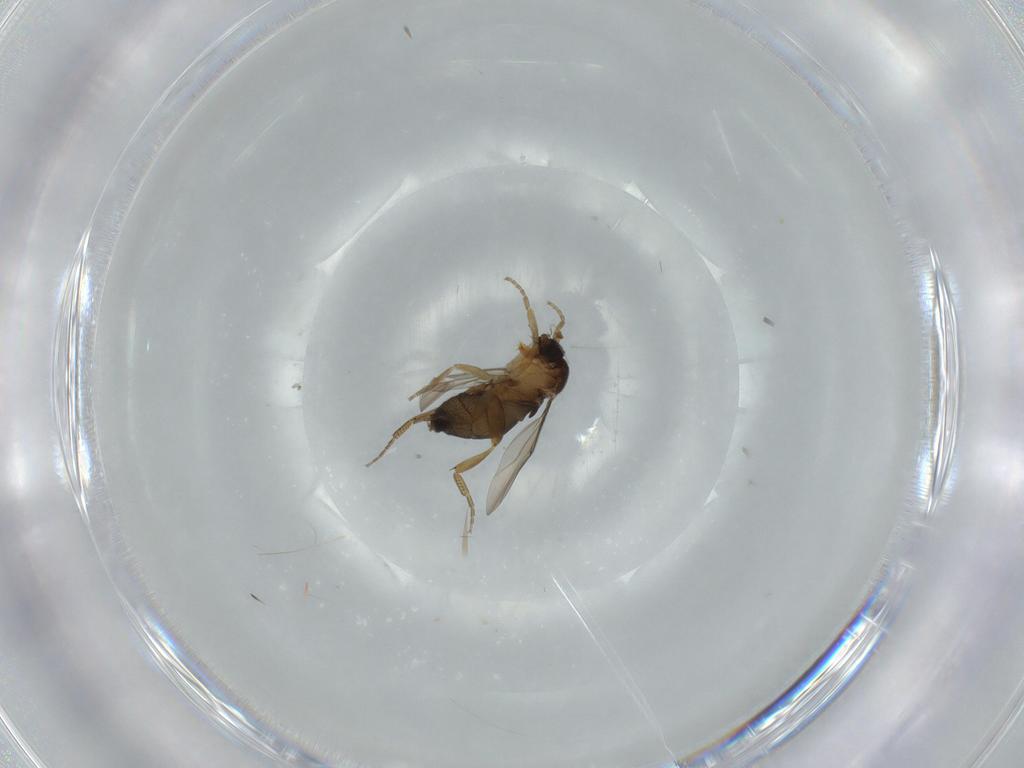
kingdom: Animalia
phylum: Arthropoda
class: Insecta
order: Diptera
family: Phoridae
